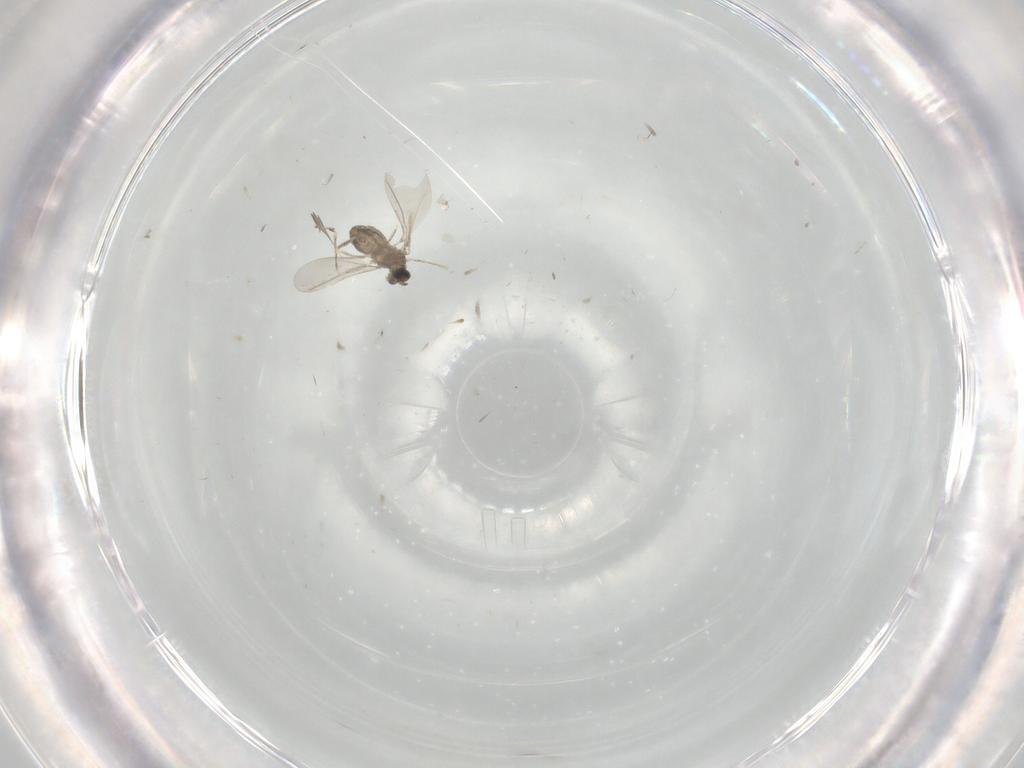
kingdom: Animalia
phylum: Arthropoda
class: Insecta
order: Diptera
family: Cecidomyiidae
